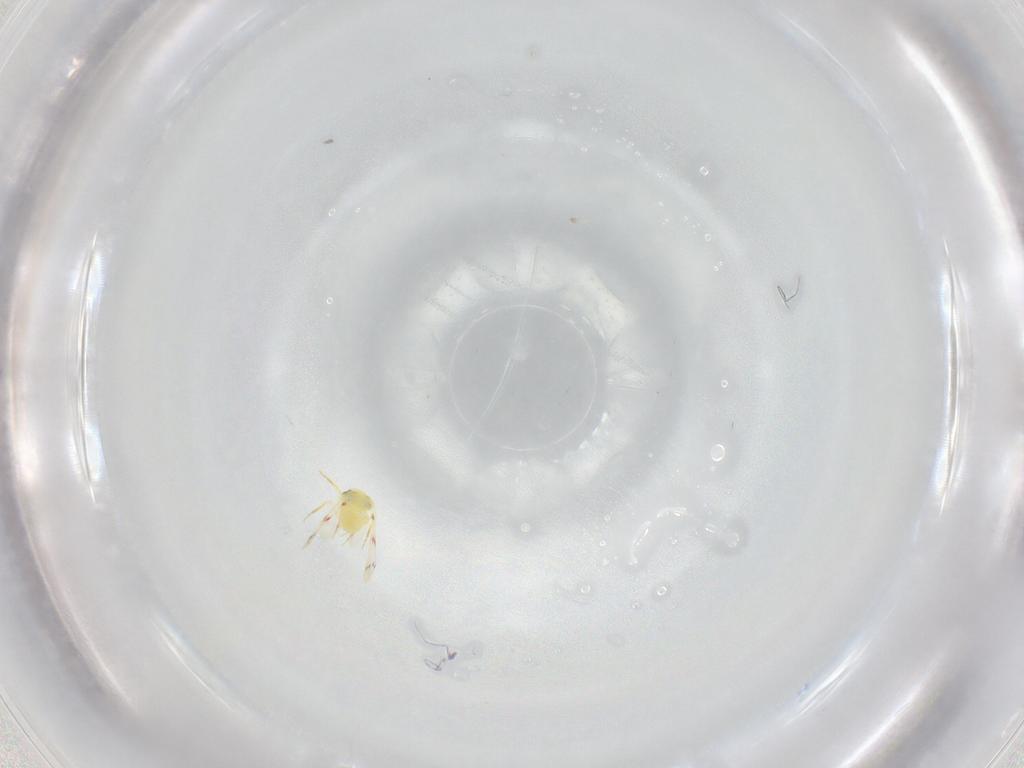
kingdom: Animalia
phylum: Arthropoda
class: Insecta
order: Hemiptera
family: Aleyrodidae
